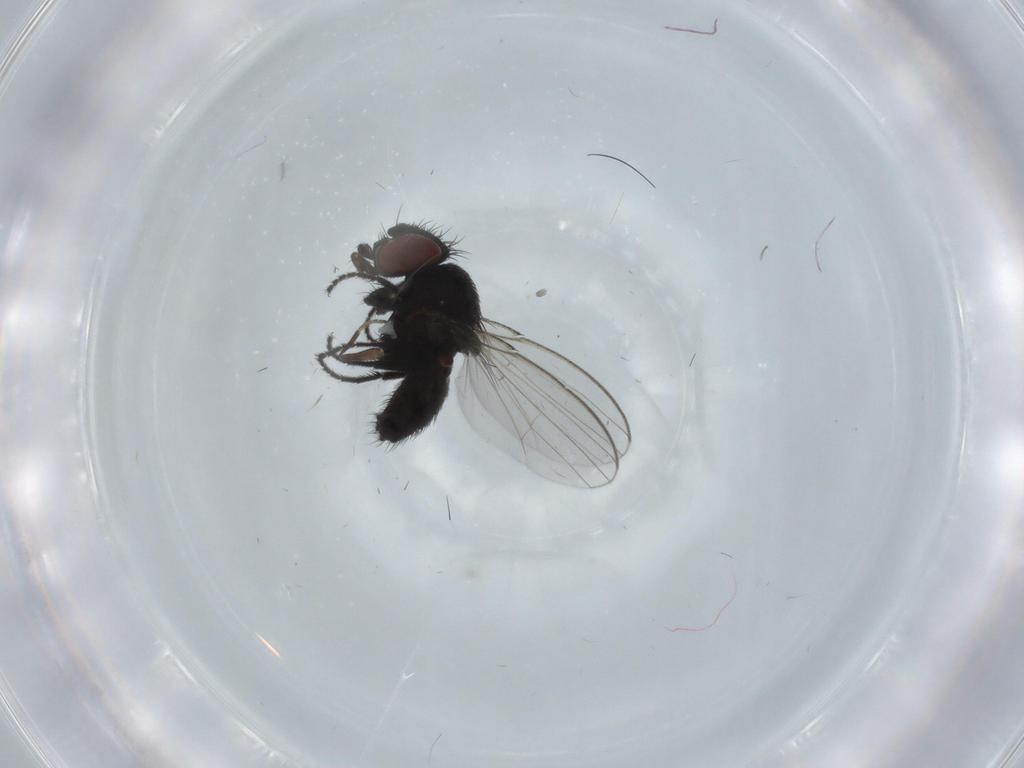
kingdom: Animalia
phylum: Arthropoda
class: Insecta
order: Diptera
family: Milichiidae
